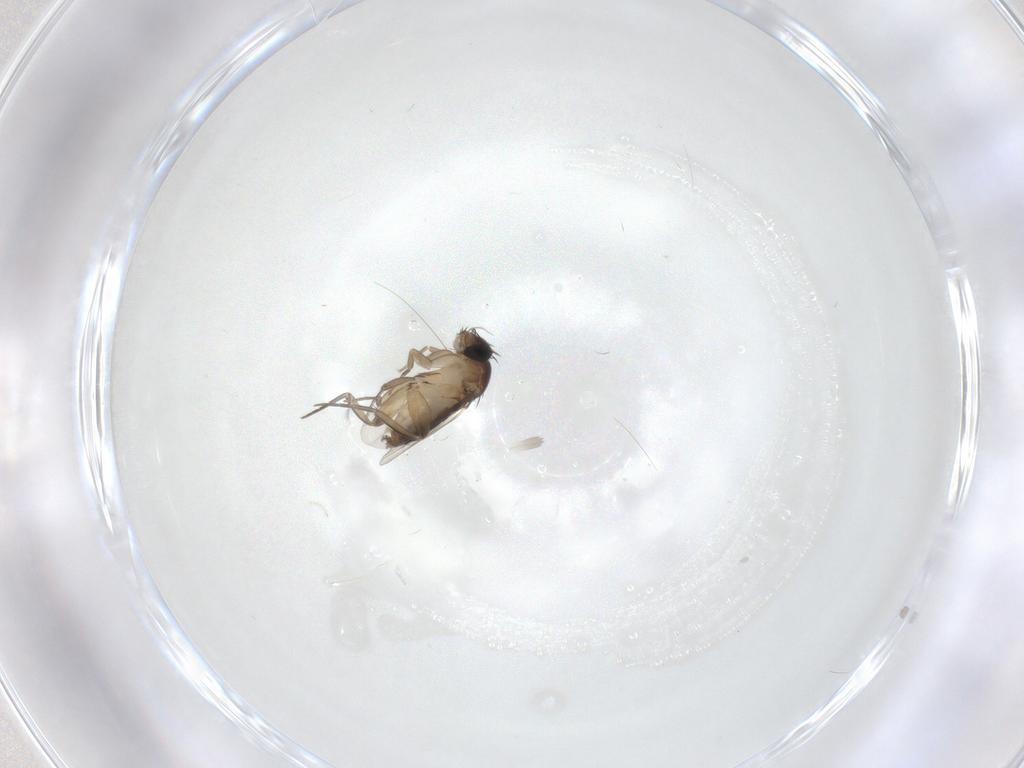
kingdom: Animalia
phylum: Arthropoda
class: Insecta
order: Diptera
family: Phoridae
